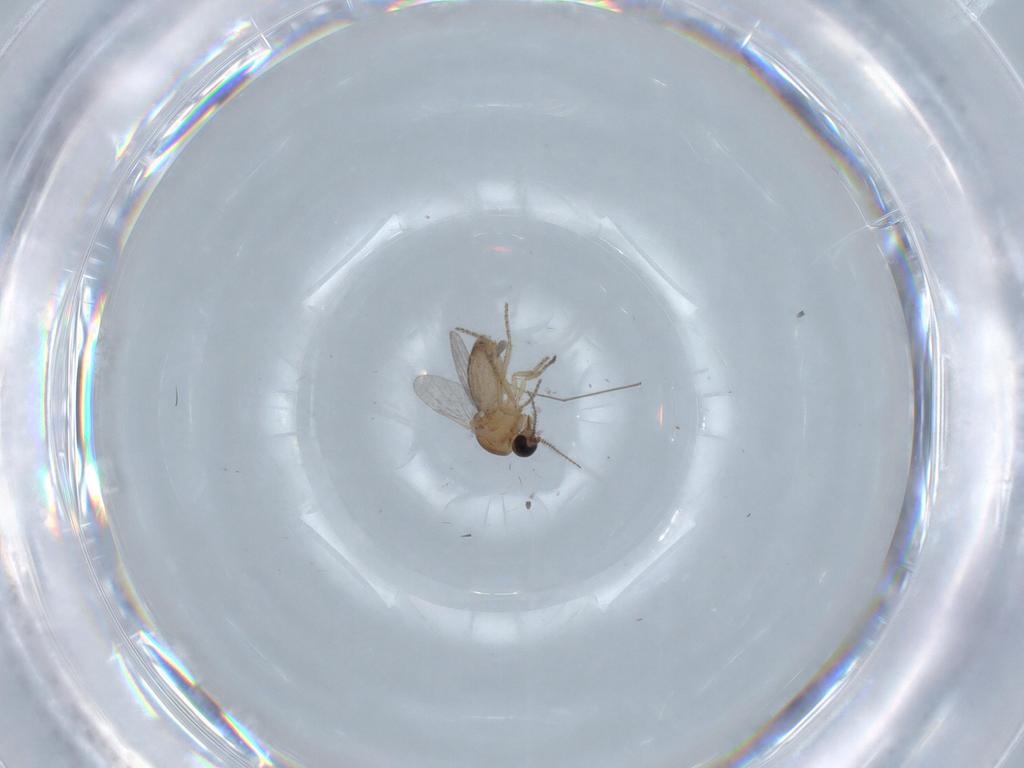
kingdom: Animalia
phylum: Arthropoda
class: Insecta
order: Diptera
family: Ceratopogonidae
